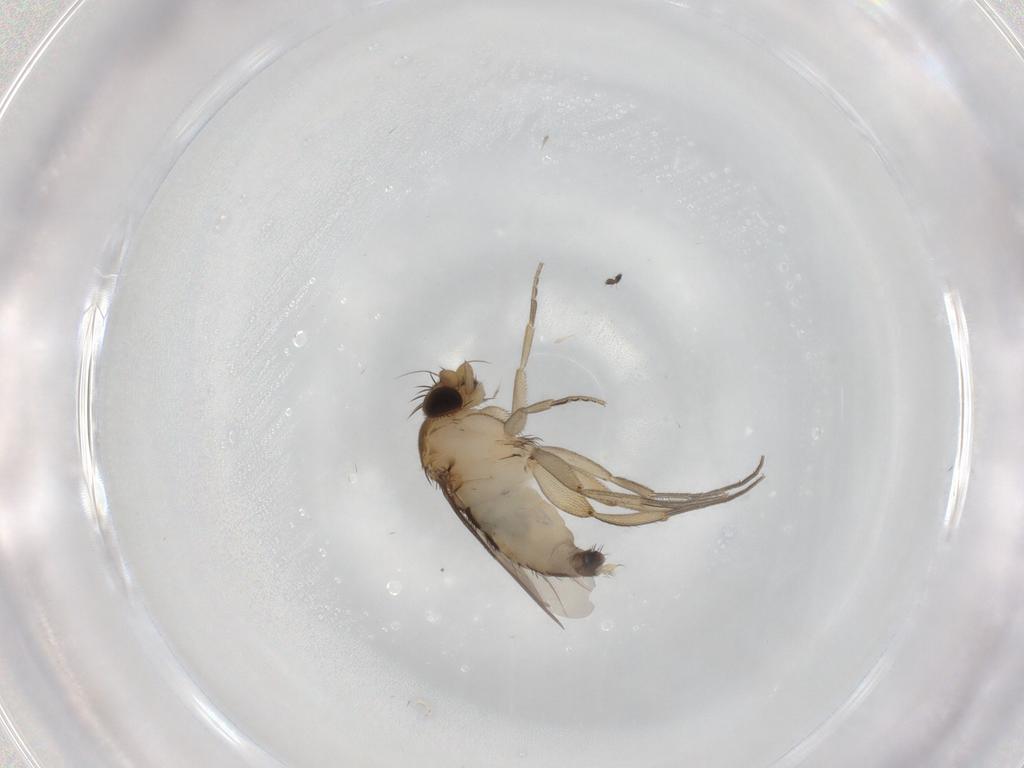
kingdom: Animalia
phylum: Arthropoda
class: Insecta
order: Diptera
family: Phoridae
